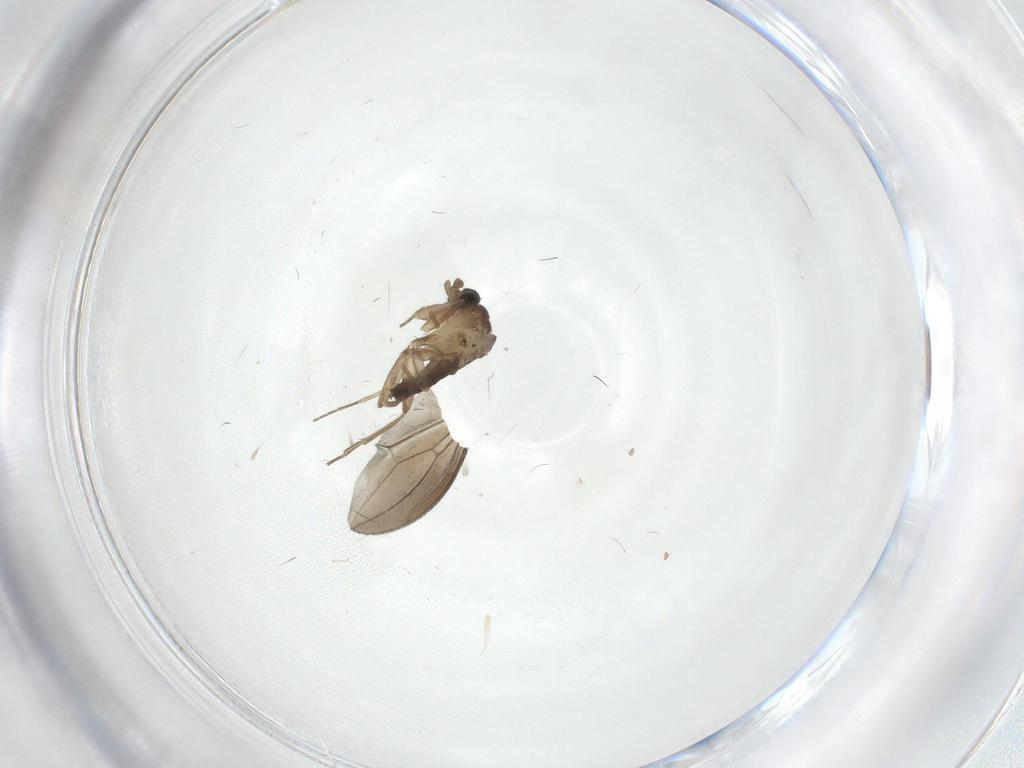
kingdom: Animalia
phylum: Arthropoda
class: Insecta
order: Diptera
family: Phoridae
